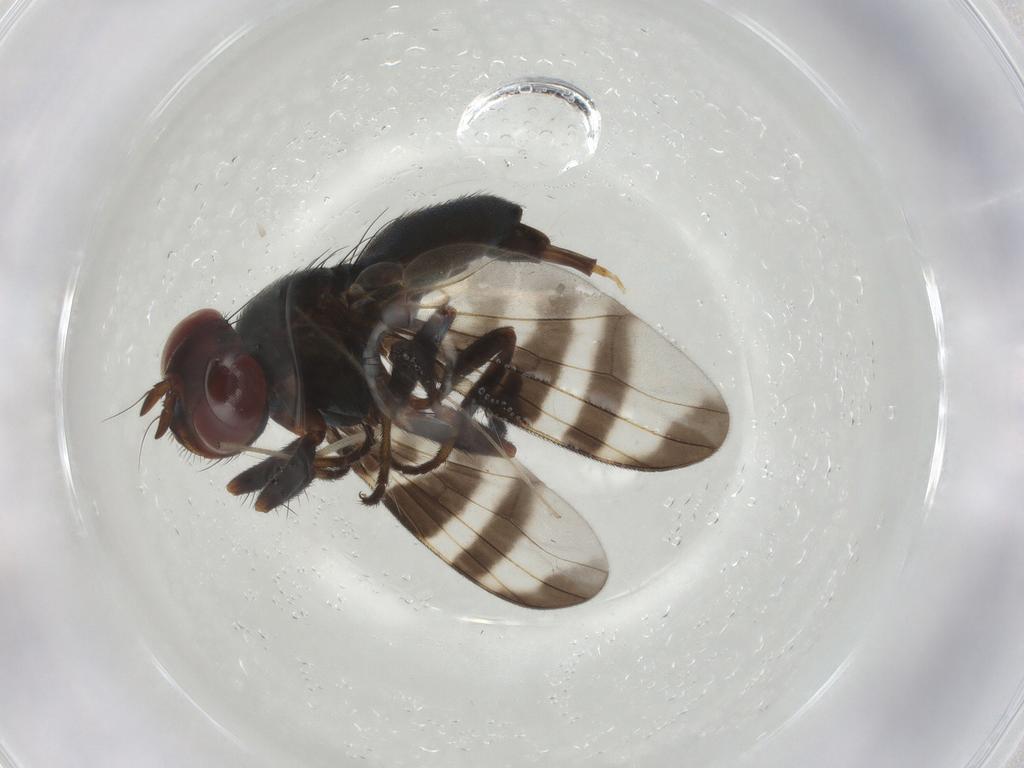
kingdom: Animalia
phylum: Arthropoda
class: Insecta
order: Diptera
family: Platystomatidae
